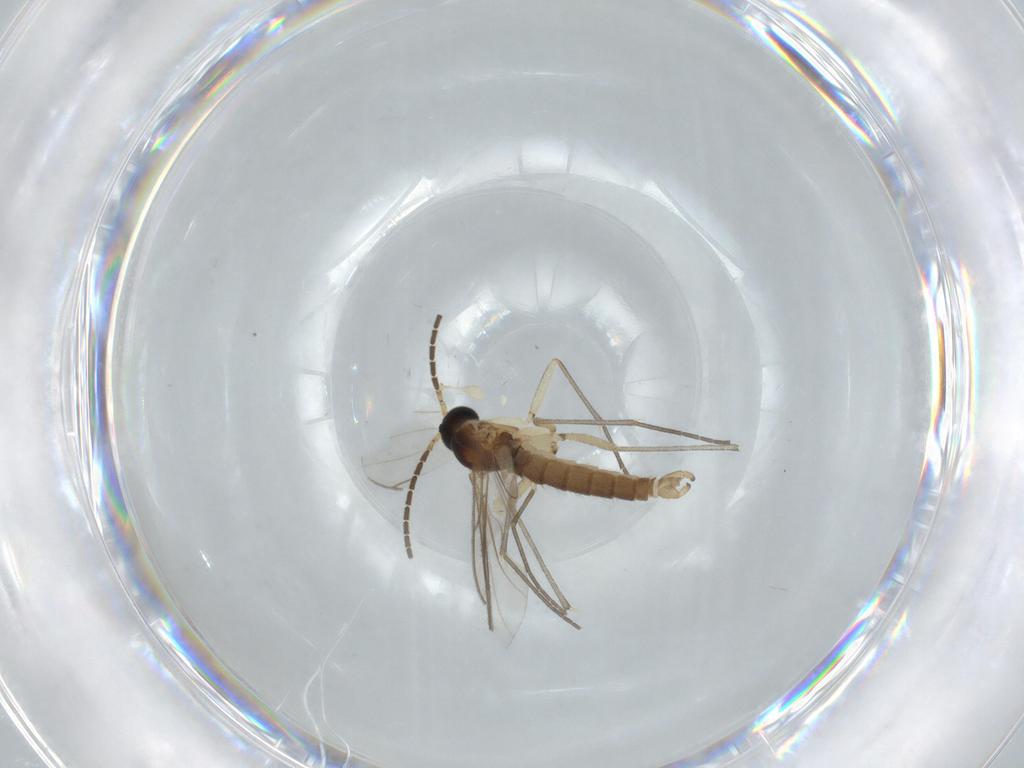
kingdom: Animalia
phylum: Arthropoda
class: Insecta
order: Diptera
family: Sciaridae
